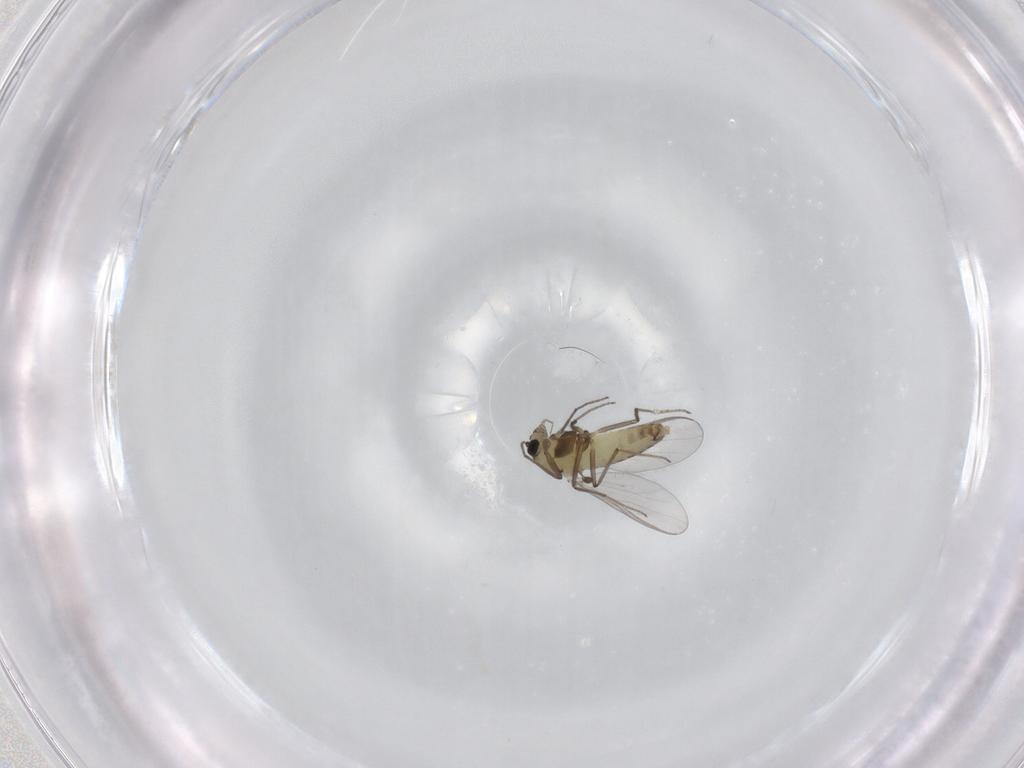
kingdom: Animalia
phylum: Arthropoda
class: Insecta
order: Diptera
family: Chironomidae
